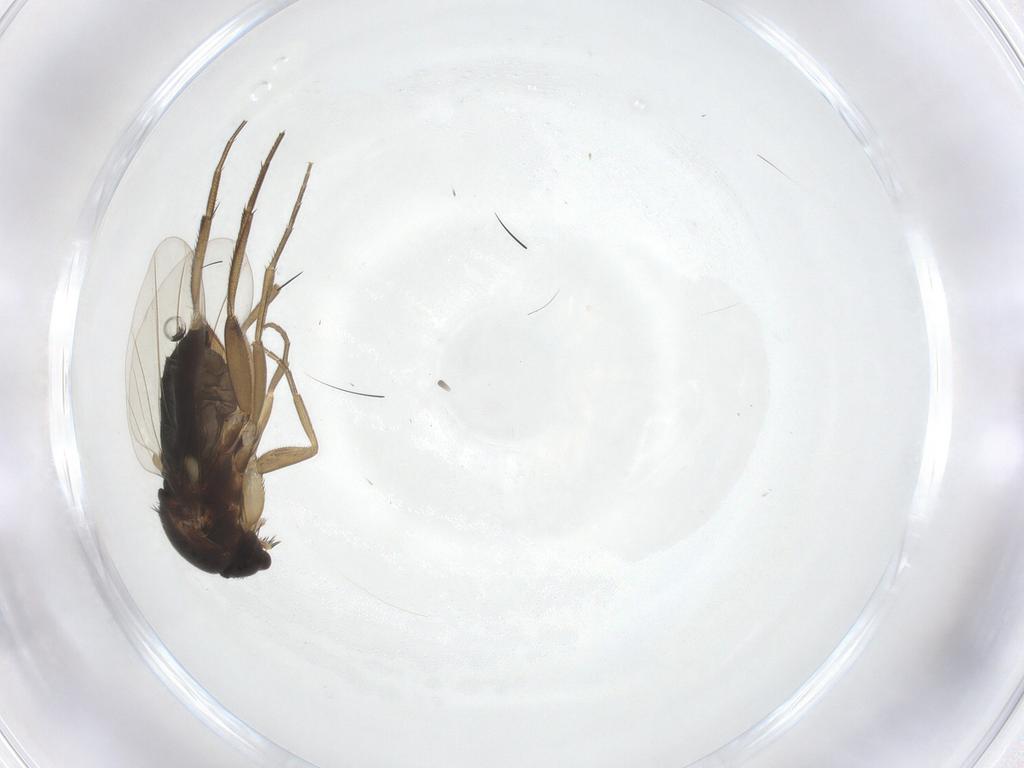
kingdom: Animalia
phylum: Arthropoda
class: Insecta
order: Diptera
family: Phoridae
